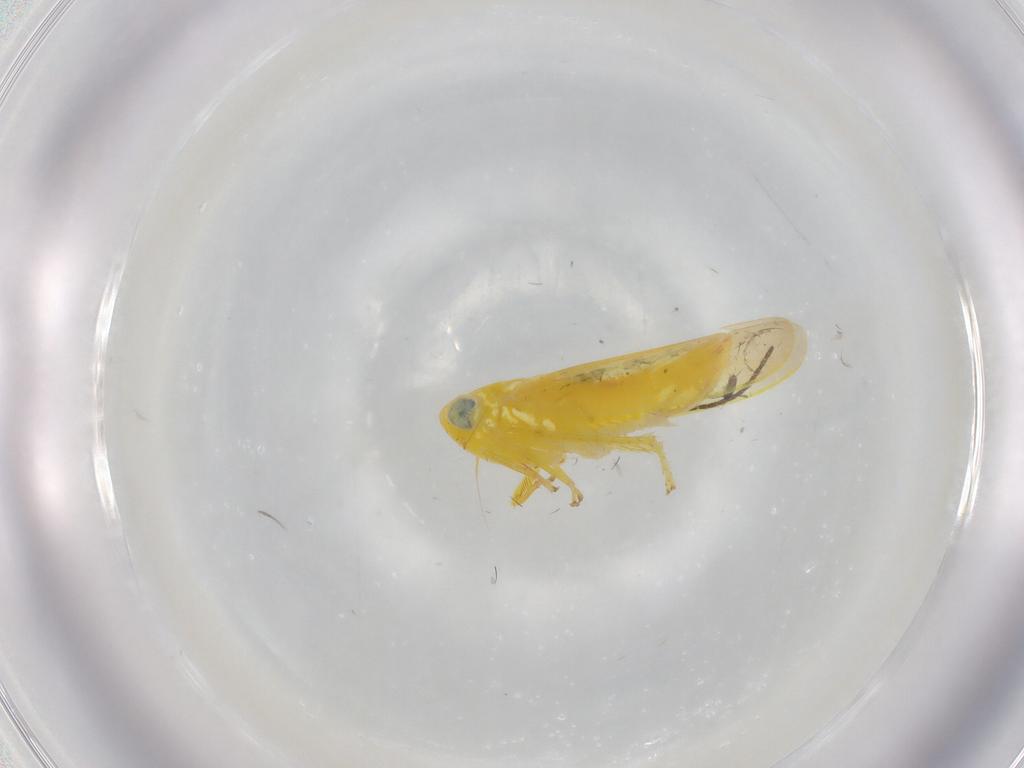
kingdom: Animalia
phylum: Arthropoda
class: Insecta
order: Hemiptera
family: Cicadellidae
